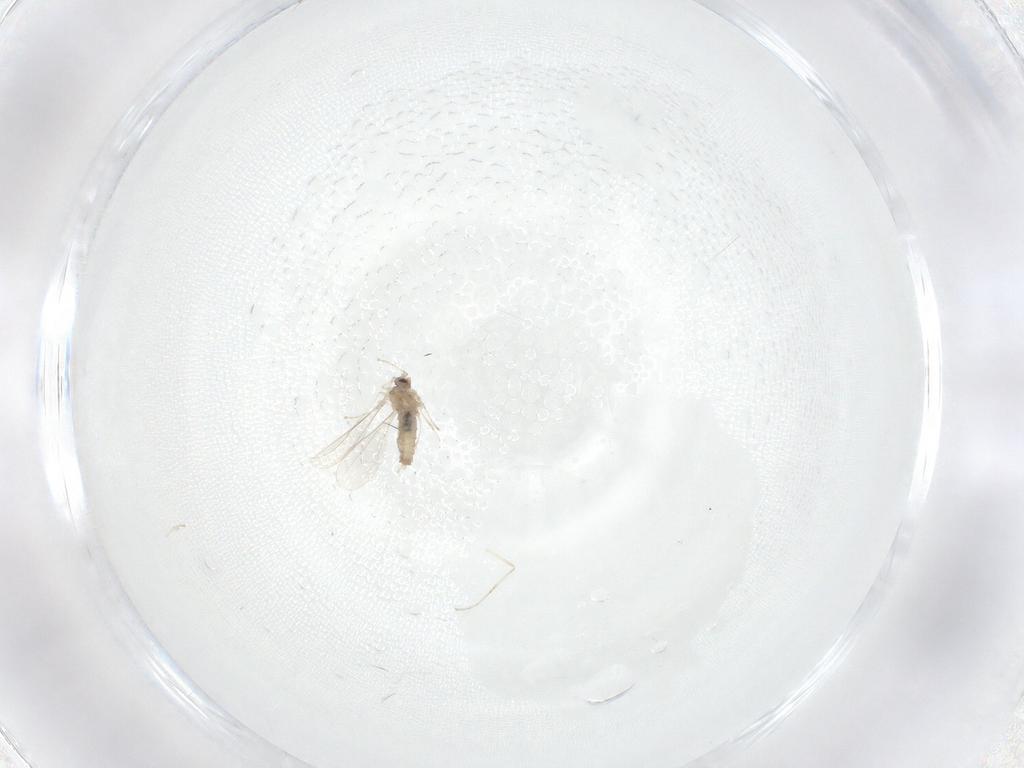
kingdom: Animalia
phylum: Arthropoda
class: Insecta
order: Diptera
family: Cecidomyiidae
